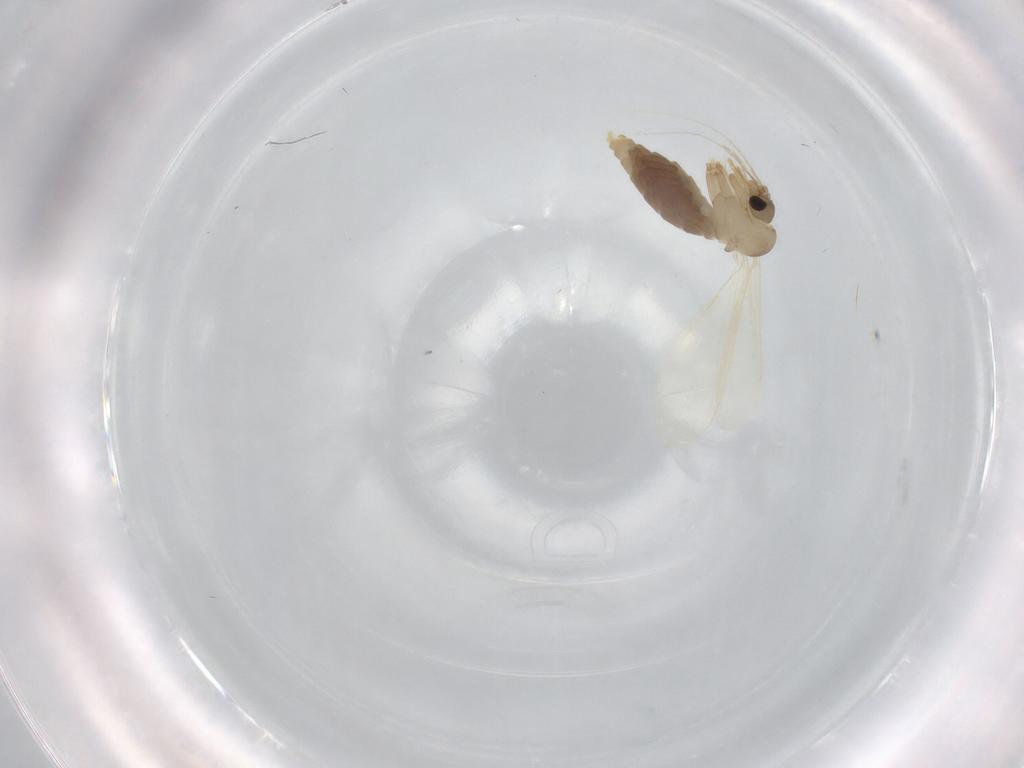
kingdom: Animalia
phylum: Arthropoda
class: Insecta
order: Diptera
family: Psychodidae
